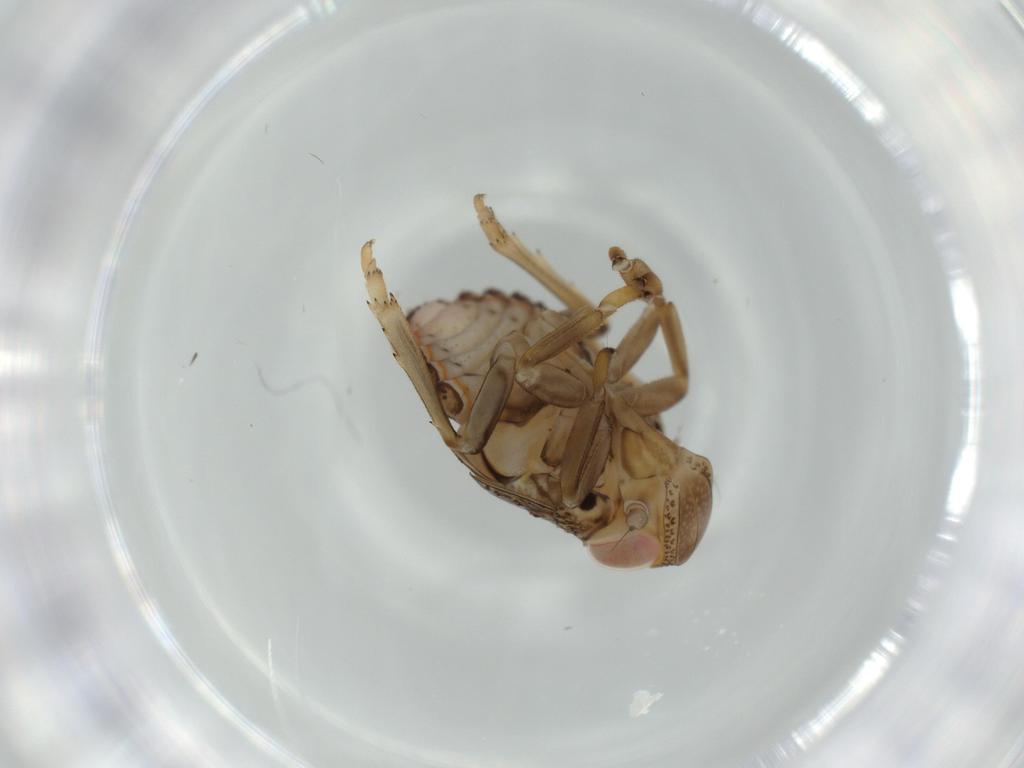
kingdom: Animalia
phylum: Arthropoda
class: Insecta
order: Hemiptera
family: Issidae
